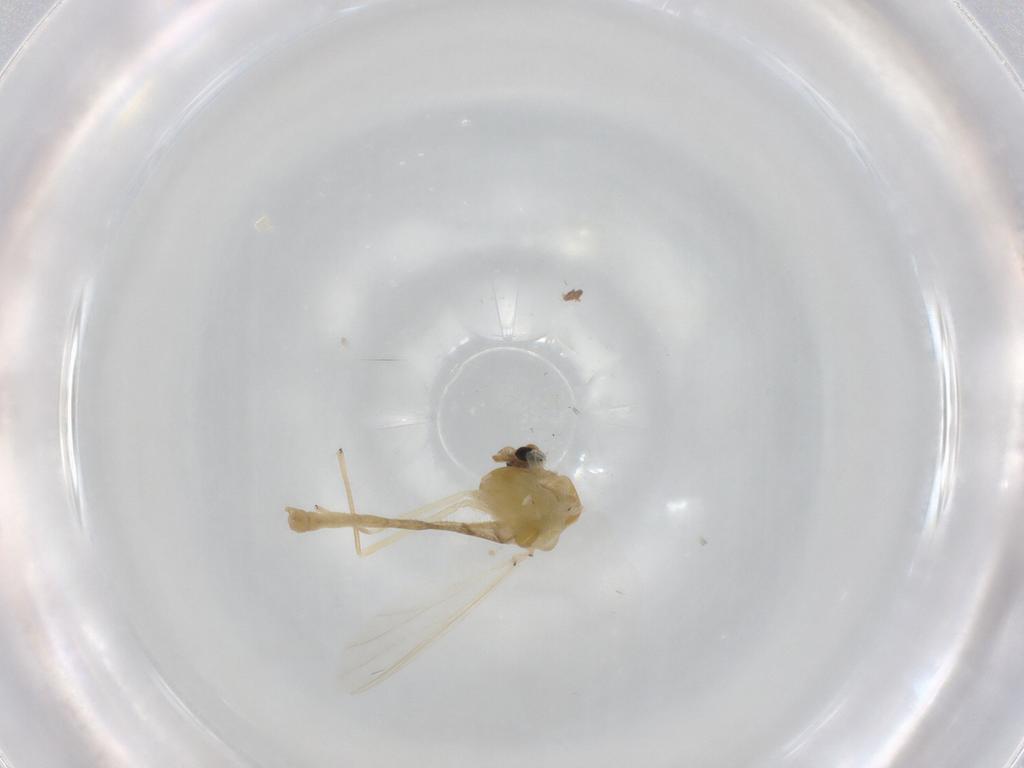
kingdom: Animalia
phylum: Arthropoda
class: Insecta
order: Diptera
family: Chironomidae
